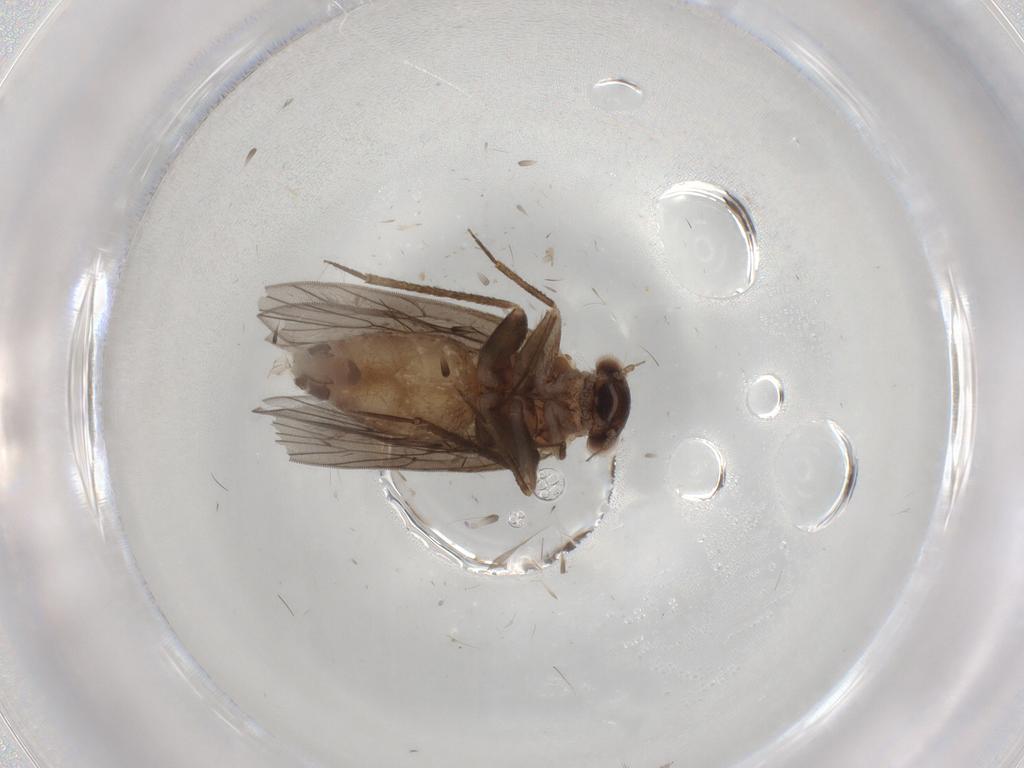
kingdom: Animalia
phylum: Arthropoda
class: Insecta
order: Psocodea
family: Lepidopsocidae
